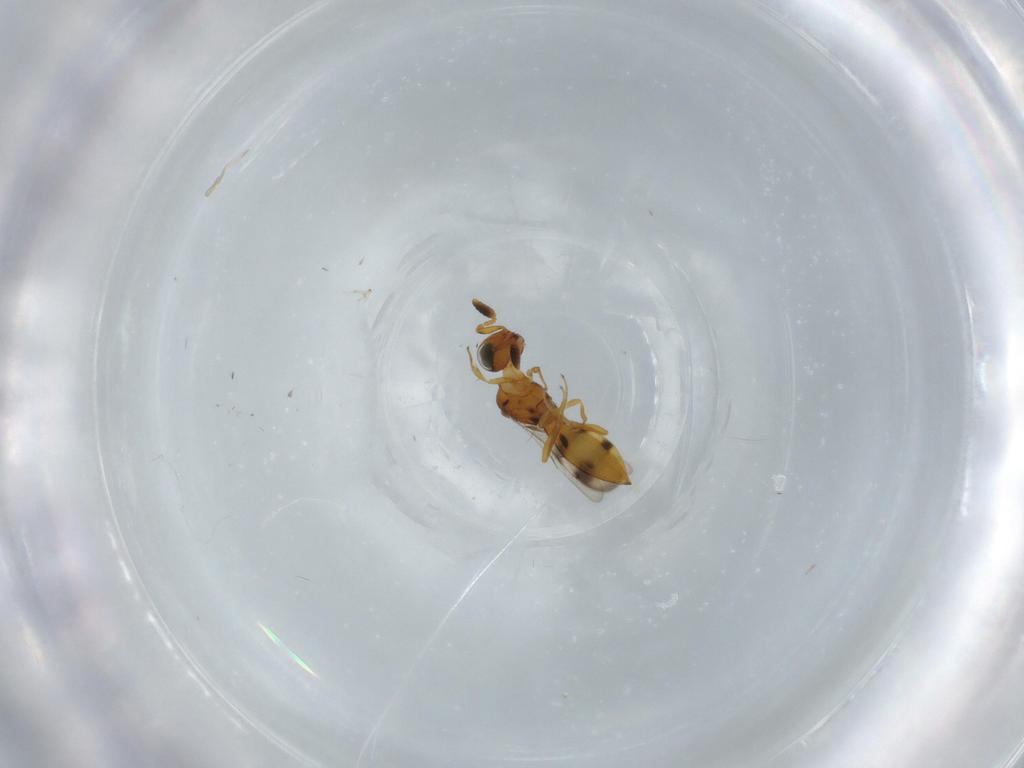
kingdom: Animalia
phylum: Arthropoda
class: Insecta
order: Hymenoptera
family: Scelionidae
